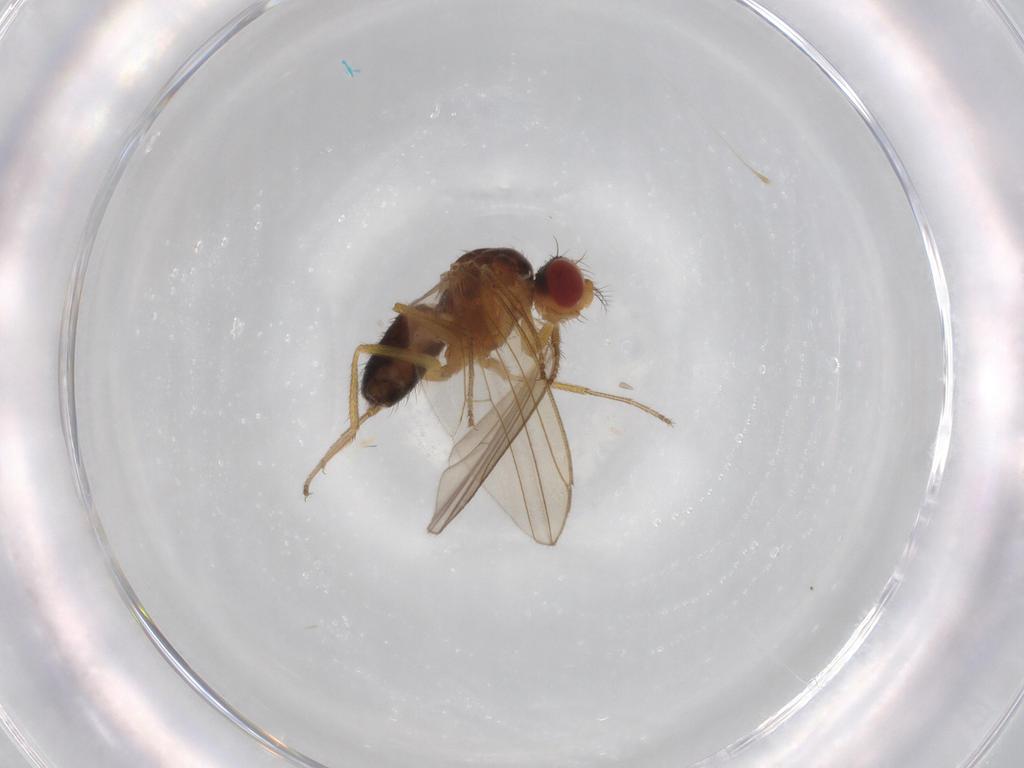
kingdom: Animalia
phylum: Arthropoda
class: Insecta
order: Diptera
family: Drosophilidae
